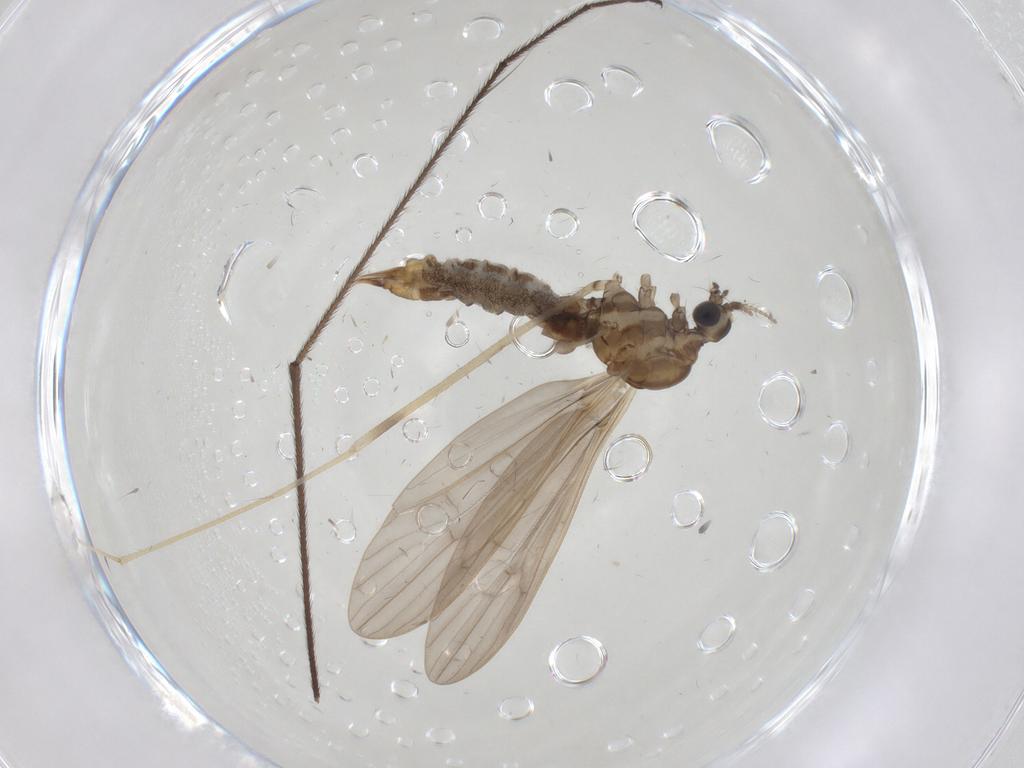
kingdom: Animalia
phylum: Arthropoda
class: Insecta
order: Diptera
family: Limoniidae
